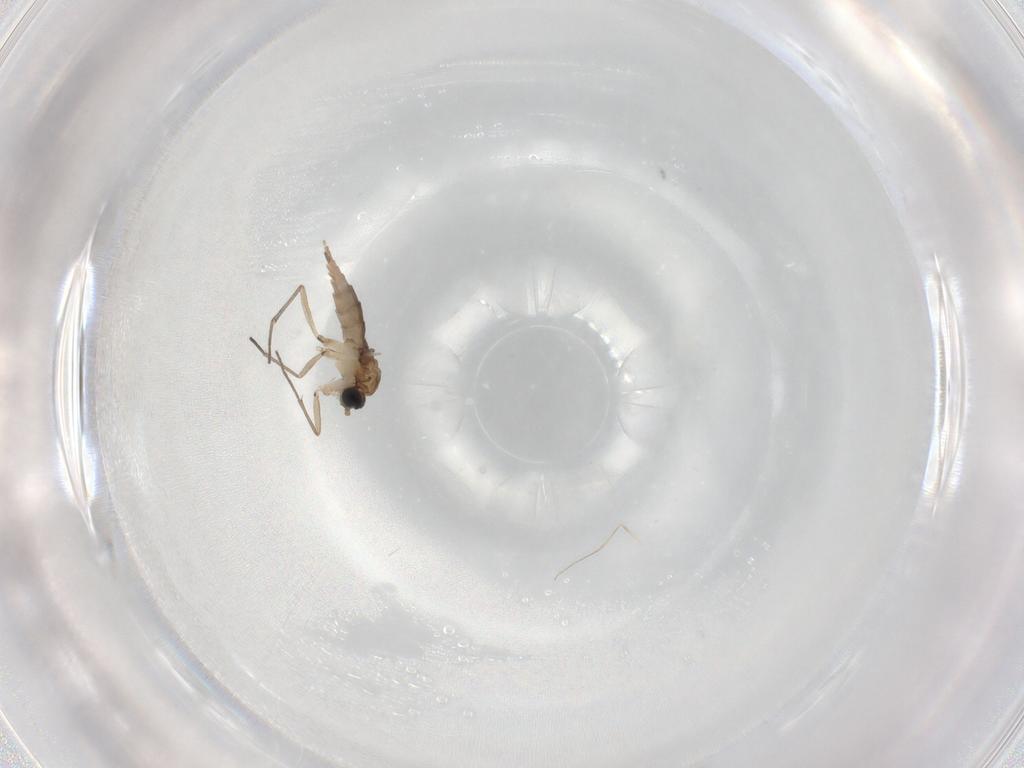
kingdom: Animalia
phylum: Arthropoda
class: Insecta
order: Diptera
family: Cecidomyiidae
